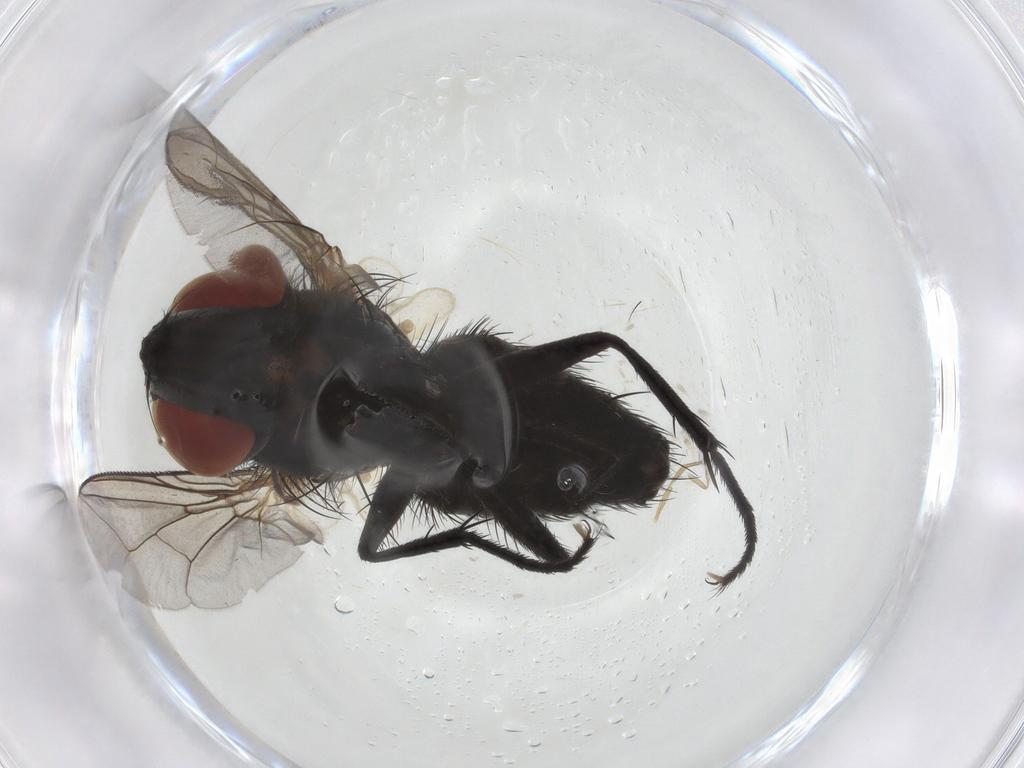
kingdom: Animalia
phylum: Arthropoda
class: Insecta
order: Diptera
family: Sarcophagidae
